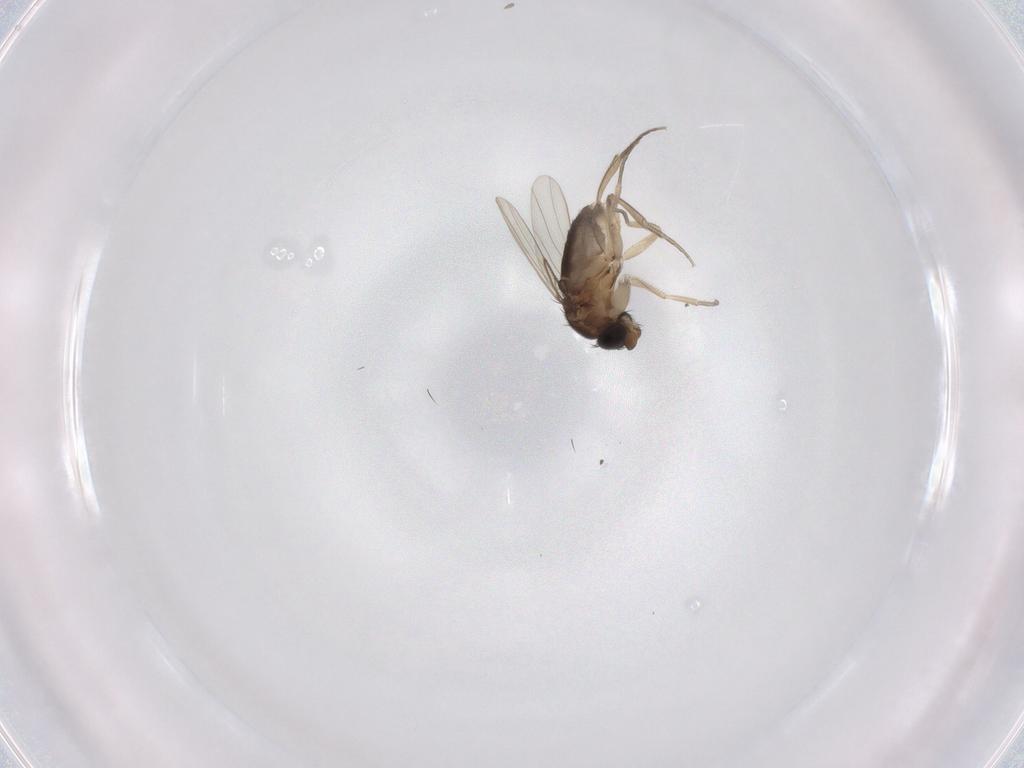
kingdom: Animalia
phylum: Arthropoda
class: Insecta
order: Diptera
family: Phoridae
